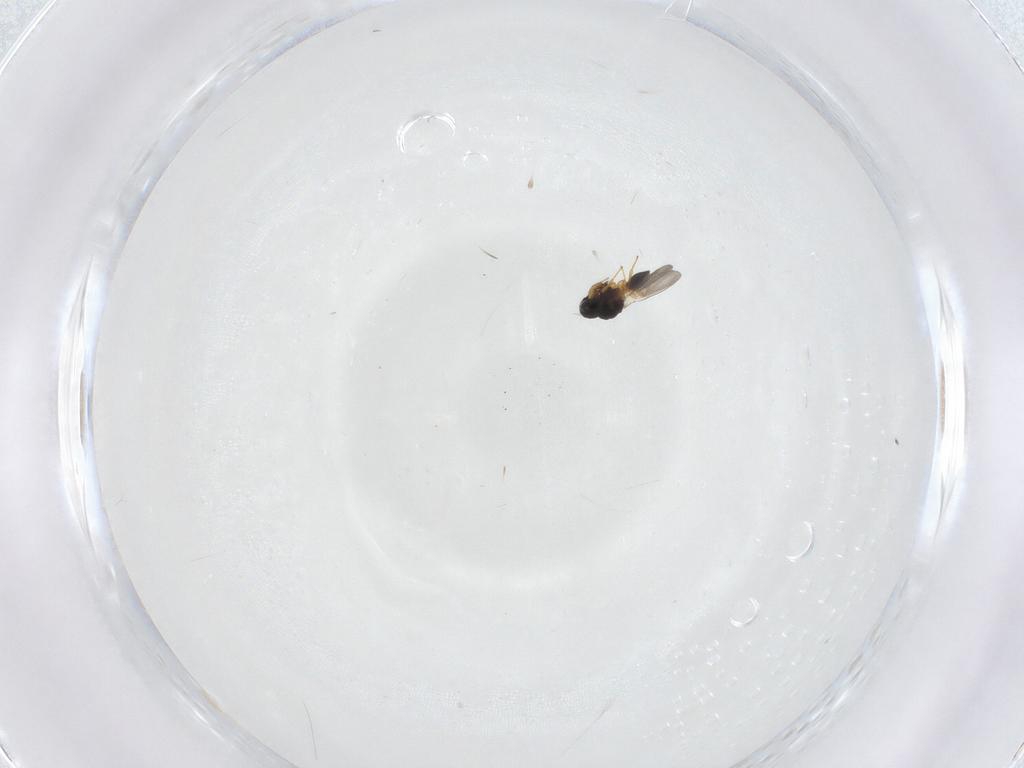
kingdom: Animalia
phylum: Arthropoda
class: Insecta
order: Hymenoptera
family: Platygastridae
